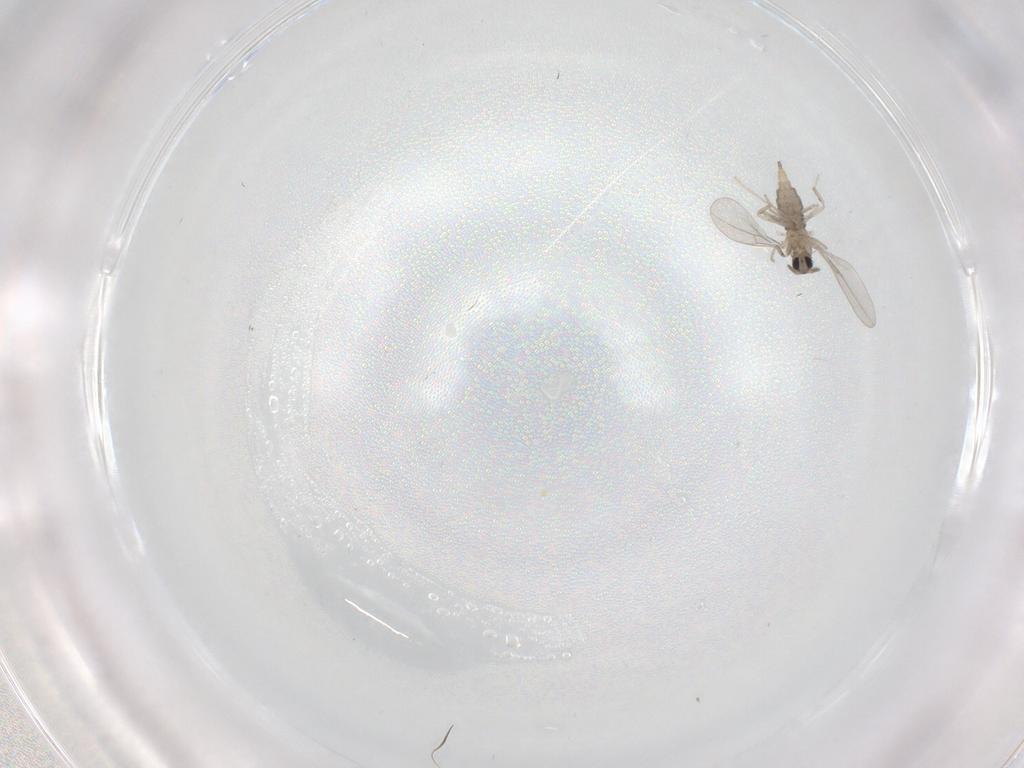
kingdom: Animalia
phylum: Arthropoda
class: Insecta
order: Diptera
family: Cecidomyiidae
